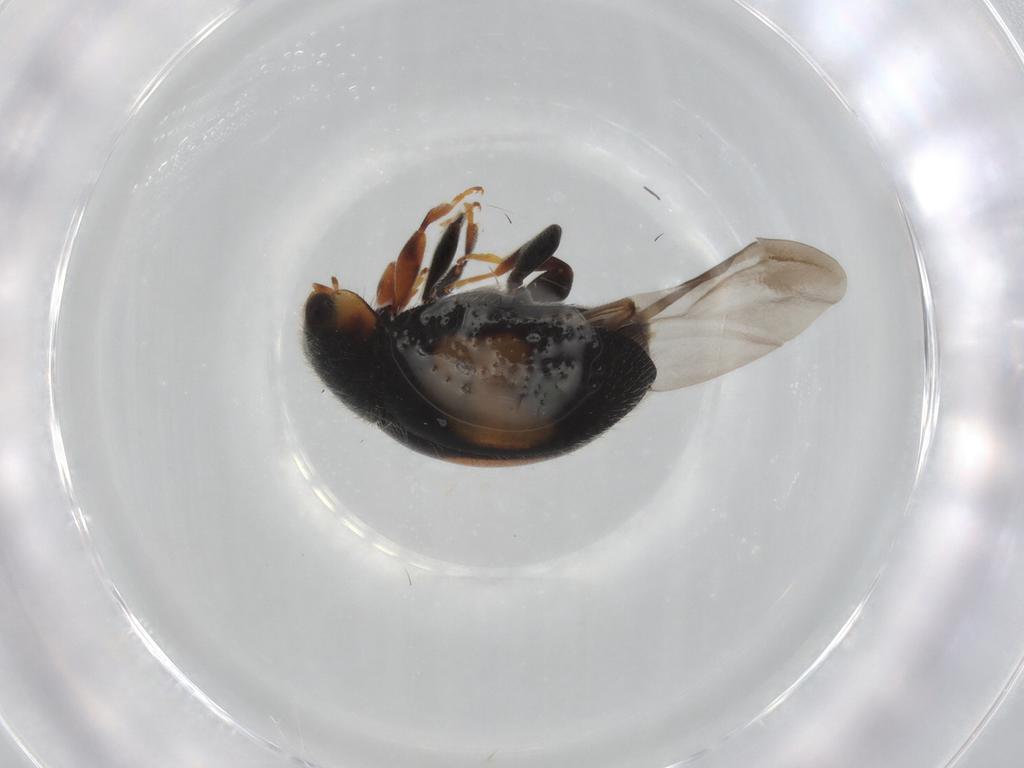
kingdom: Animalia
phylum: Arthropoda
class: Insecta
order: Coleoptera
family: Coccinellidae
